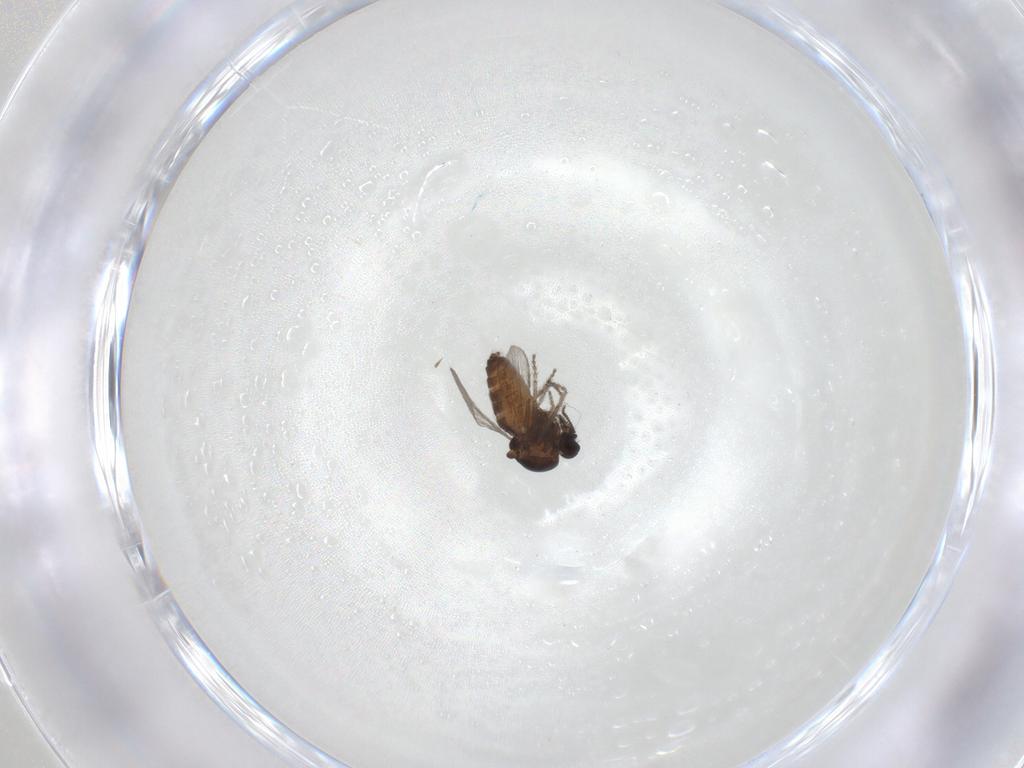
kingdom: Animalia
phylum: Arthropoda
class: Insecta
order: Diptera
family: Ceratopogonidae
